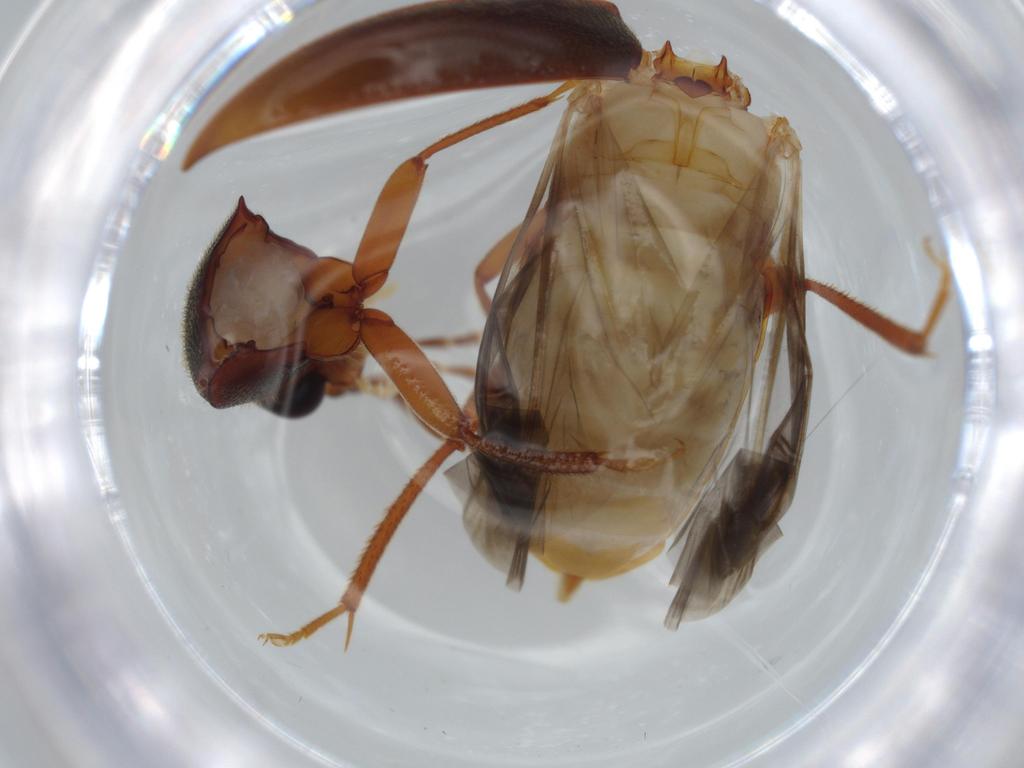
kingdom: Animalia
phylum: Arthropoda
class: Insecta
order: Coleoptera
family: Ptilodactylidae
